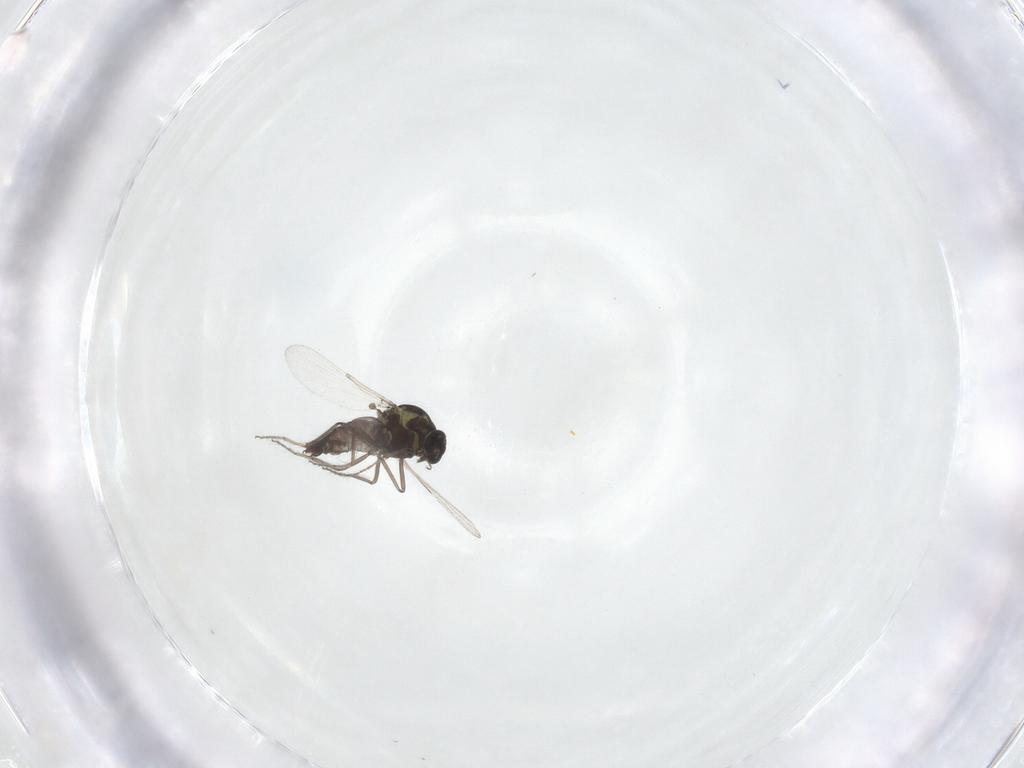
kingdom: Animalia
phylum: Arthropoda
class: Insecta
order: Diptera
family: Ceratopogonidae
